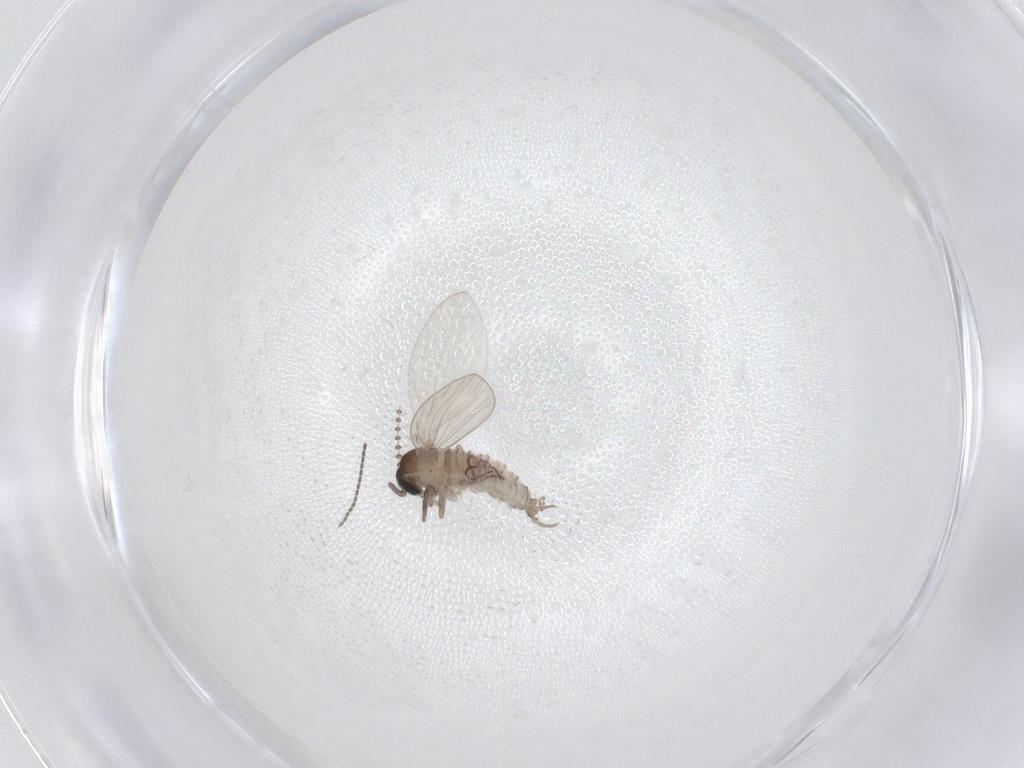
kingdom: Animalia
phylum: Arthropoda
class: Insecta
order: Diptera
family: Psychodidae
